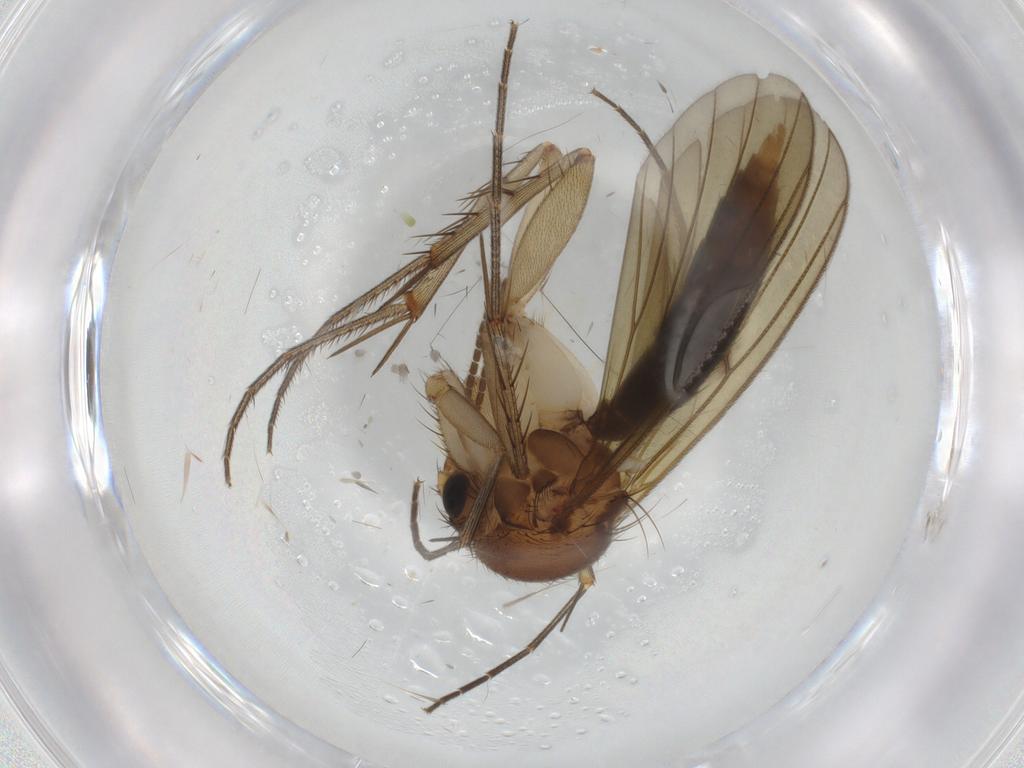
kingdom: Animalia
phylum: Arthropoda
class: Insecta
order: Diptera
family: Mycetophilidae
